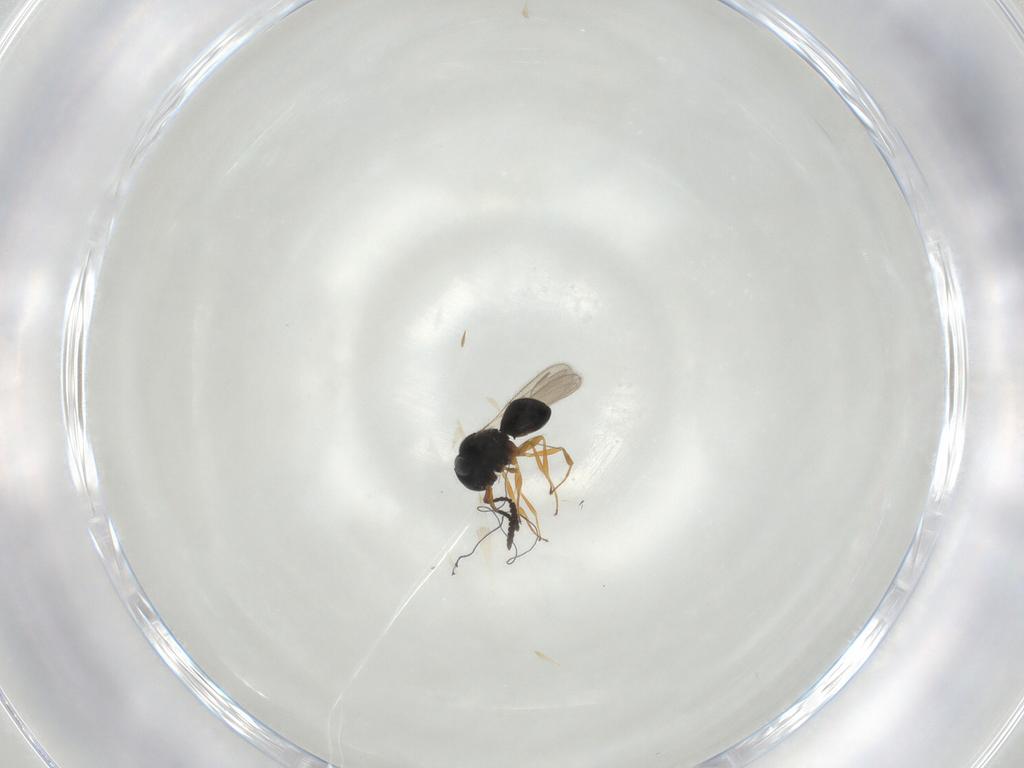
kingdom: Animalia
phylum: Arthropoda
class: Insecta
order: Hymenoptera
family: Scelionidae
